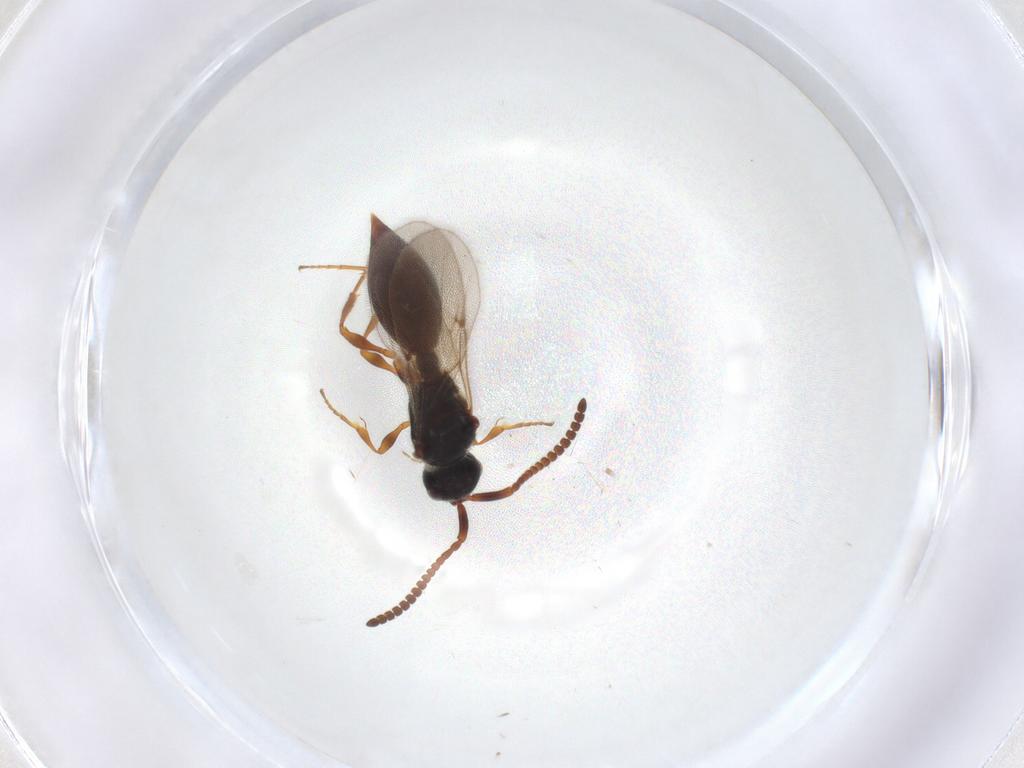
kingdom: Animalia
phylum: Arthropoda
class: Insecta
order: Hymenoptera
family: Diapriidae
